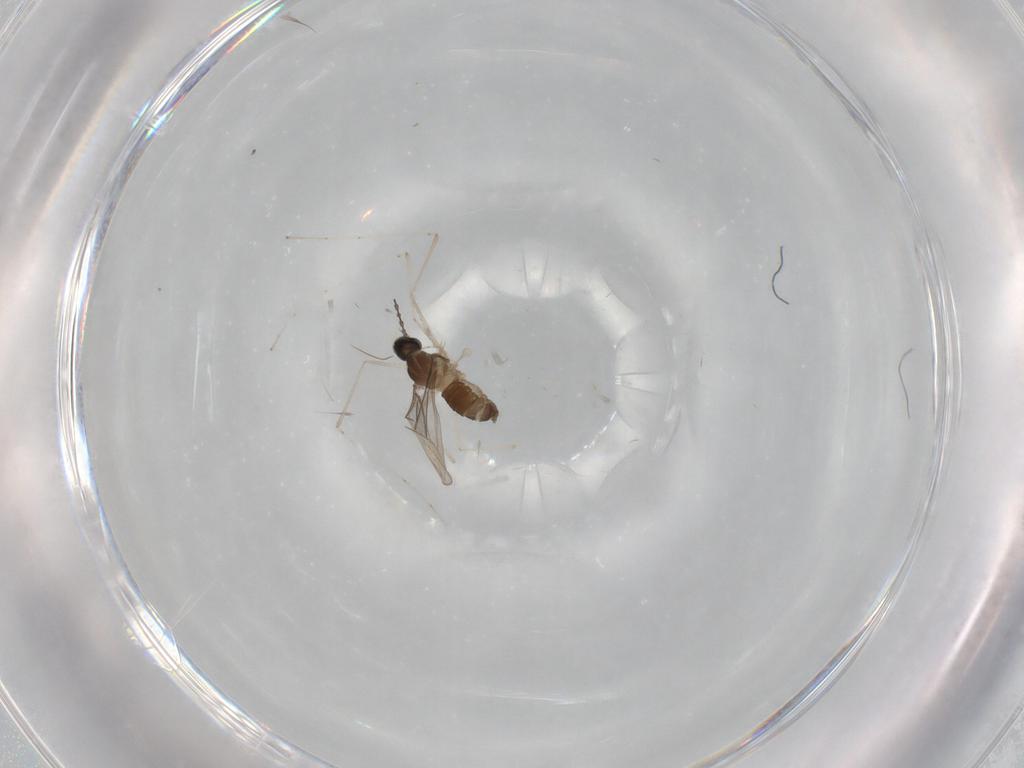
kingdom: Animalia
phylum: Arthropoda
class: Insecta
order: Diptera
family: Cecidomyiidae
